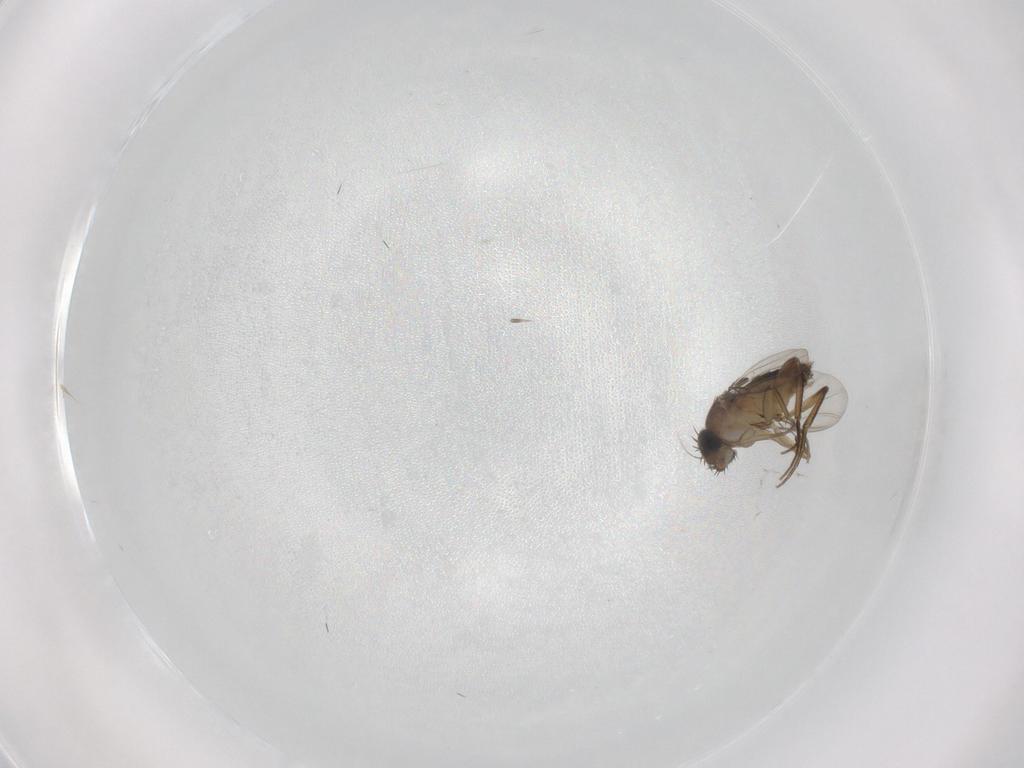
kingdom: Animalia
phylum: Arthropoda
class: Insecta
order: Diptera
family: Phoridae
